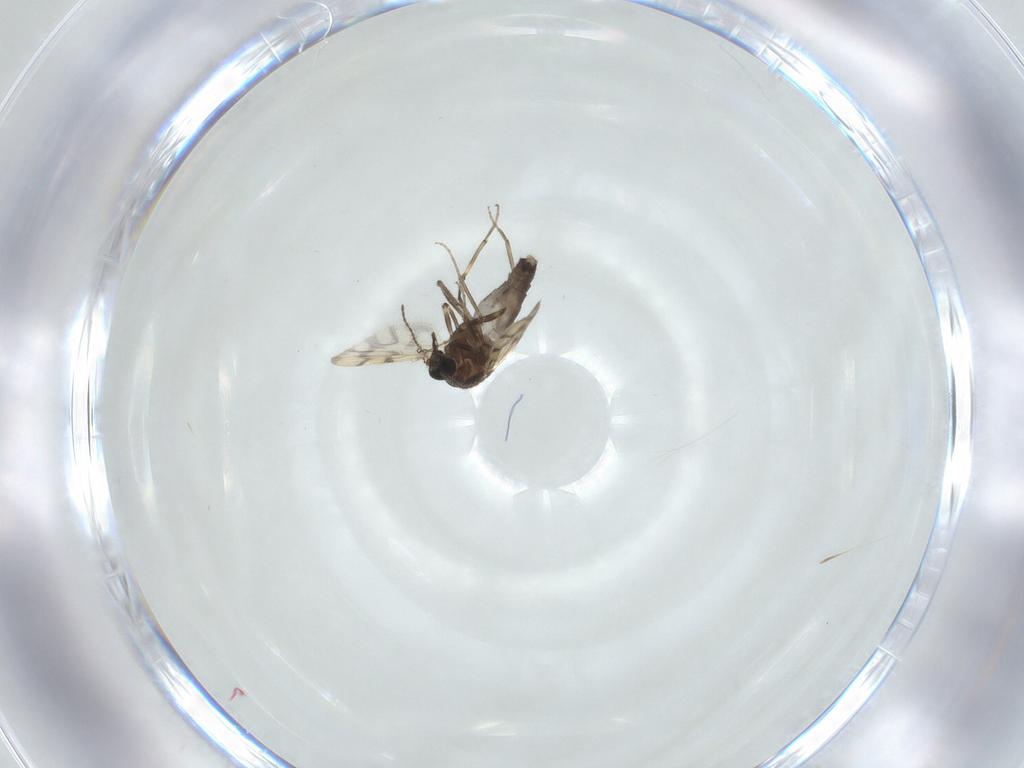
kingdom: Animalia
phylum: Arthropoda
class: Insecta
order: Diptera
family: Ceratopogonidae
